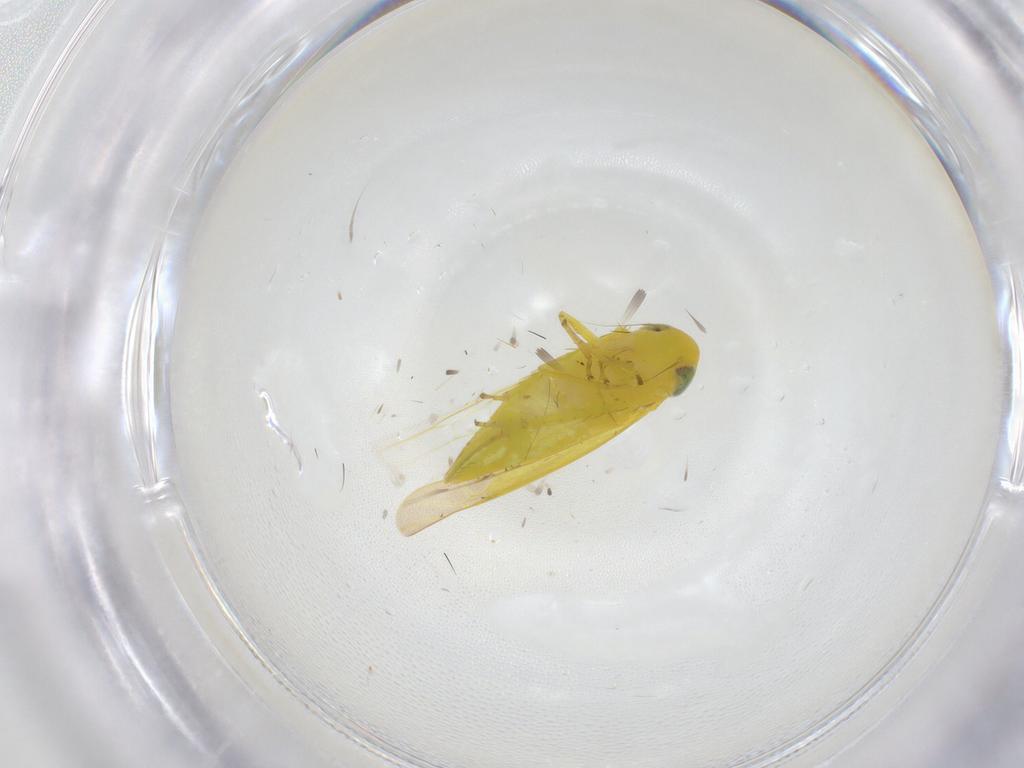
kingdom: Animalia
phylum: Arthropoda
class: Insecta
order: Hemiptera
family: Cicadellidae
